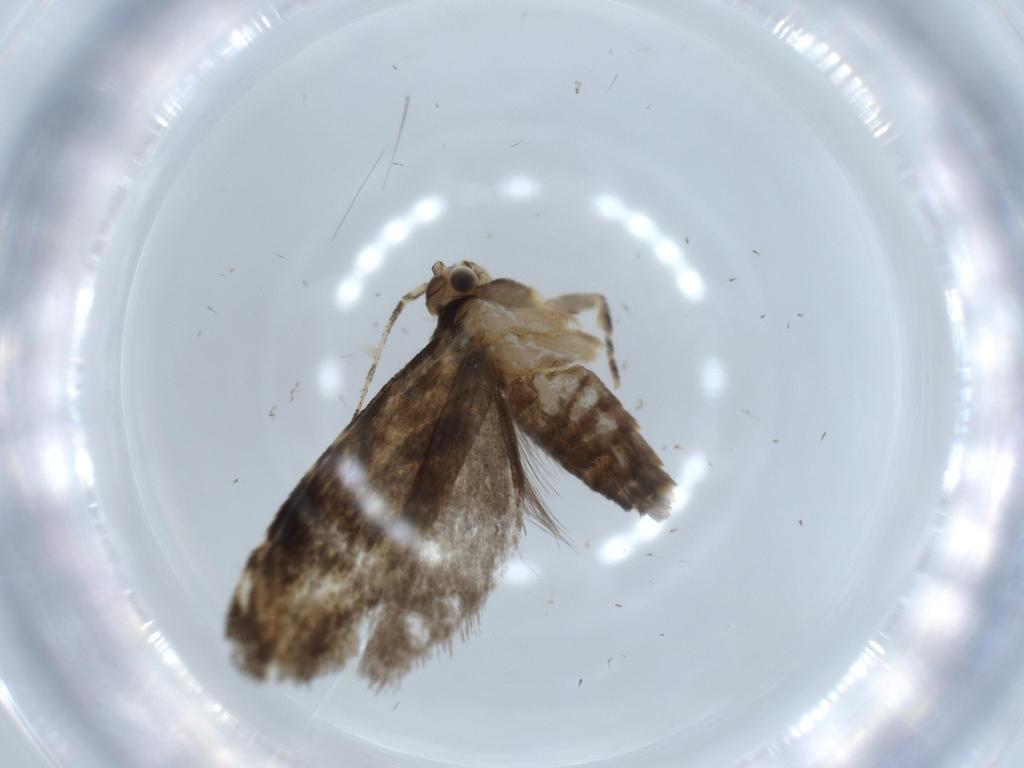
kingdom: Animalia
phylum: Arthropoda
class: Insecta
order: Lepidoptera
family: Tineidae
